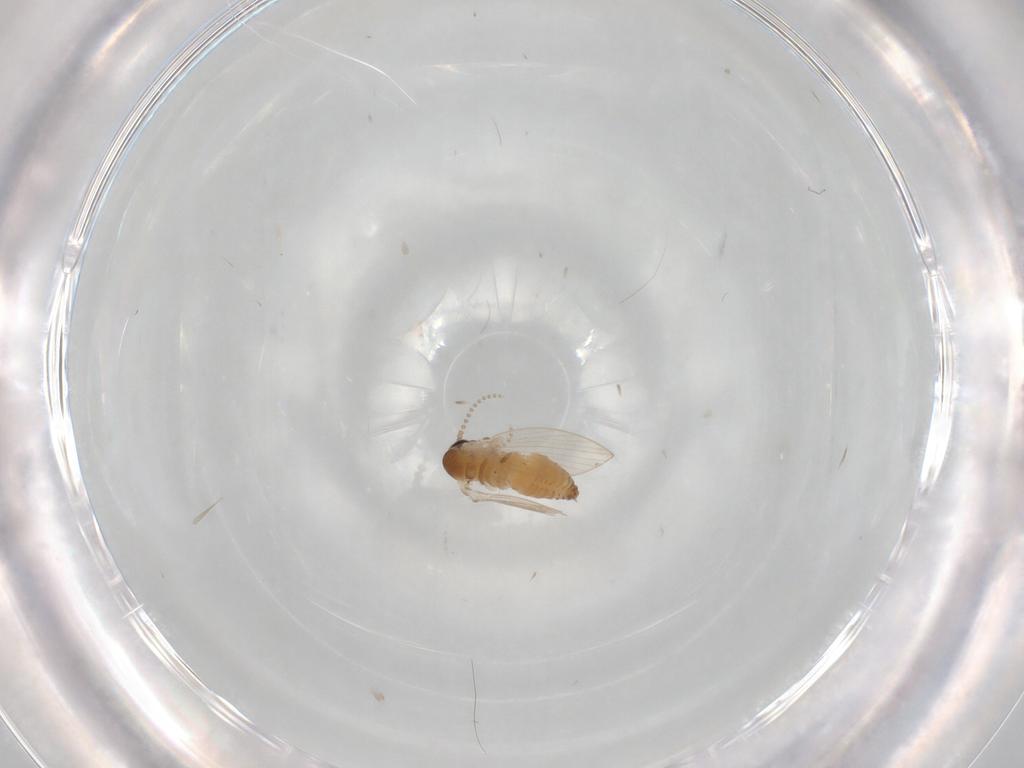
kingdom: Animalia
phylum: Arthropoda
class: Insecta
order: Diptera
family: Psychodidae
